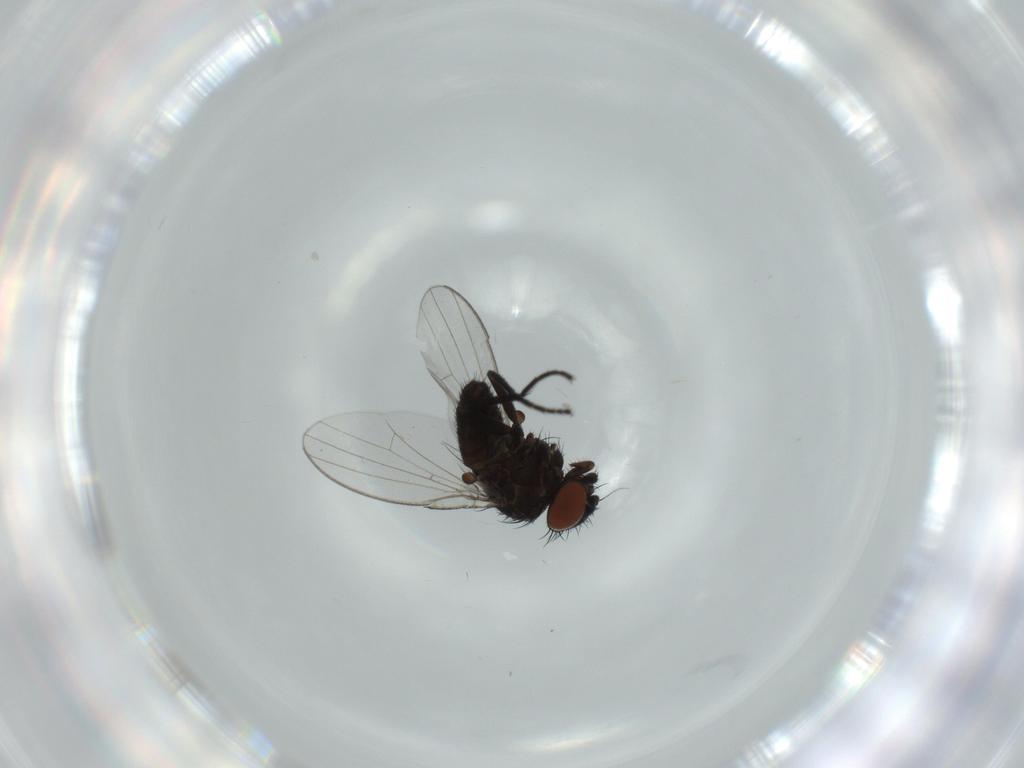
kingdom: Animalia
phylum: Arthropoda
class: Insecta
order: Diptera
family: Milichiidae
